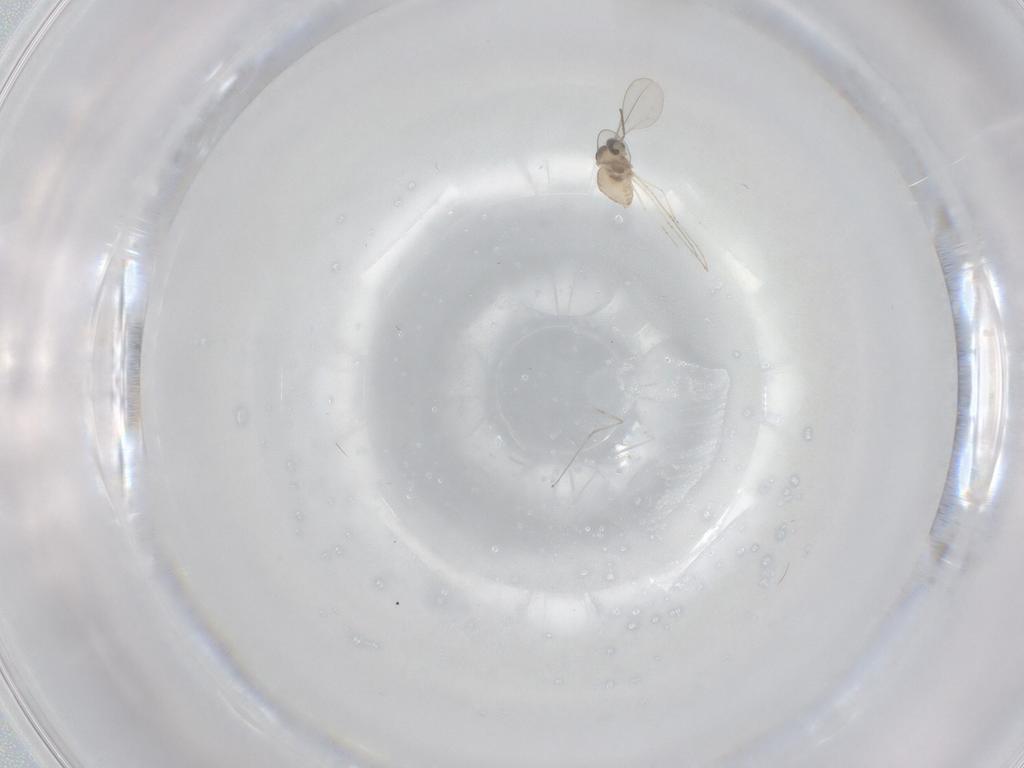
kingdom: Animalia
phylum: Arthropoda
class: Insecta
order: Diptera
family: Cecidomyiidae
